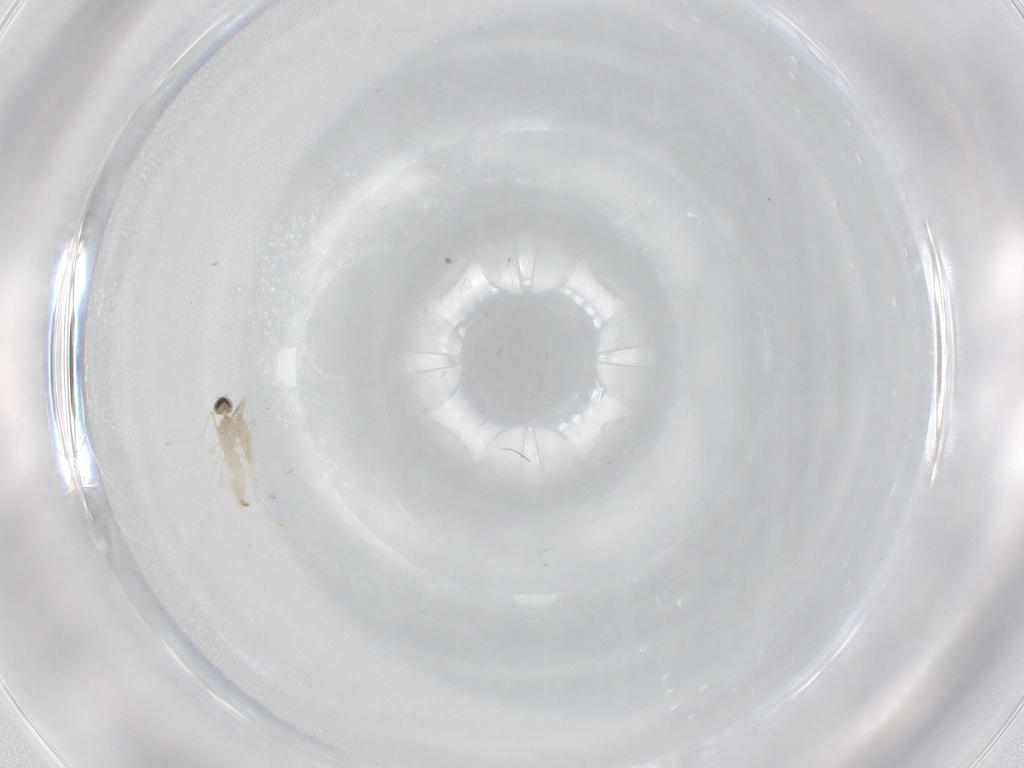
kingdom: Animalia
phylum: Arthropoda
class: Insecta
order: Diptera
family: Cecidomyiidae
